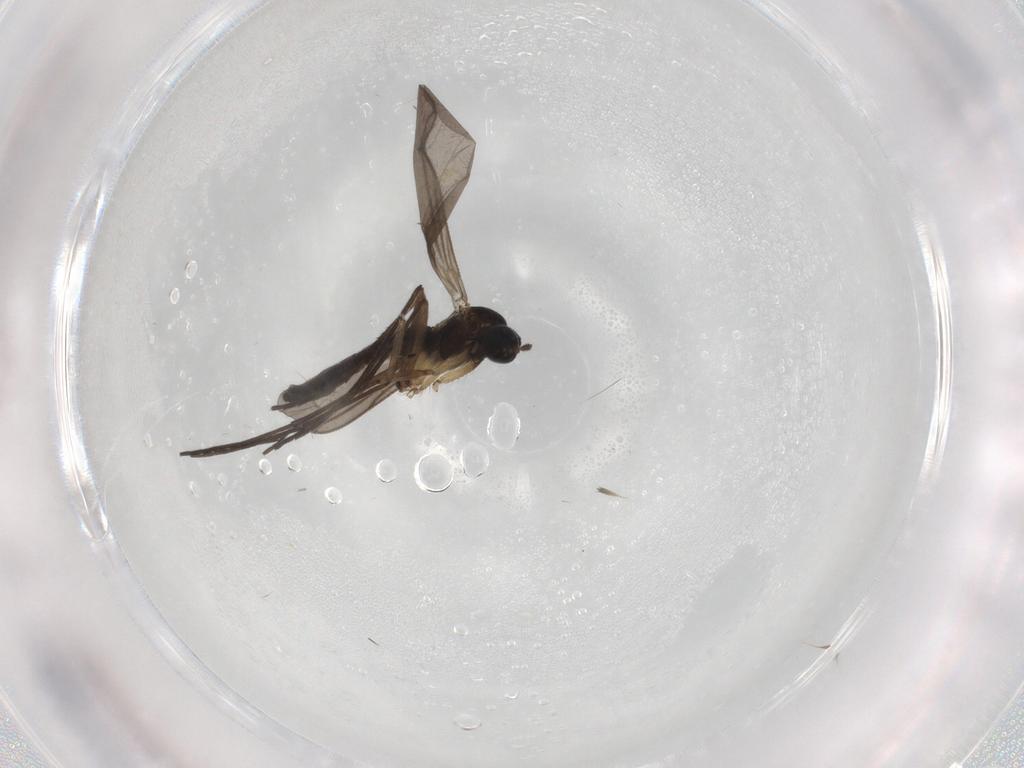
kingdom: Animalia
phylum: Arthropoda
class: Insecta
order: Diptera
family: Sciaridae
